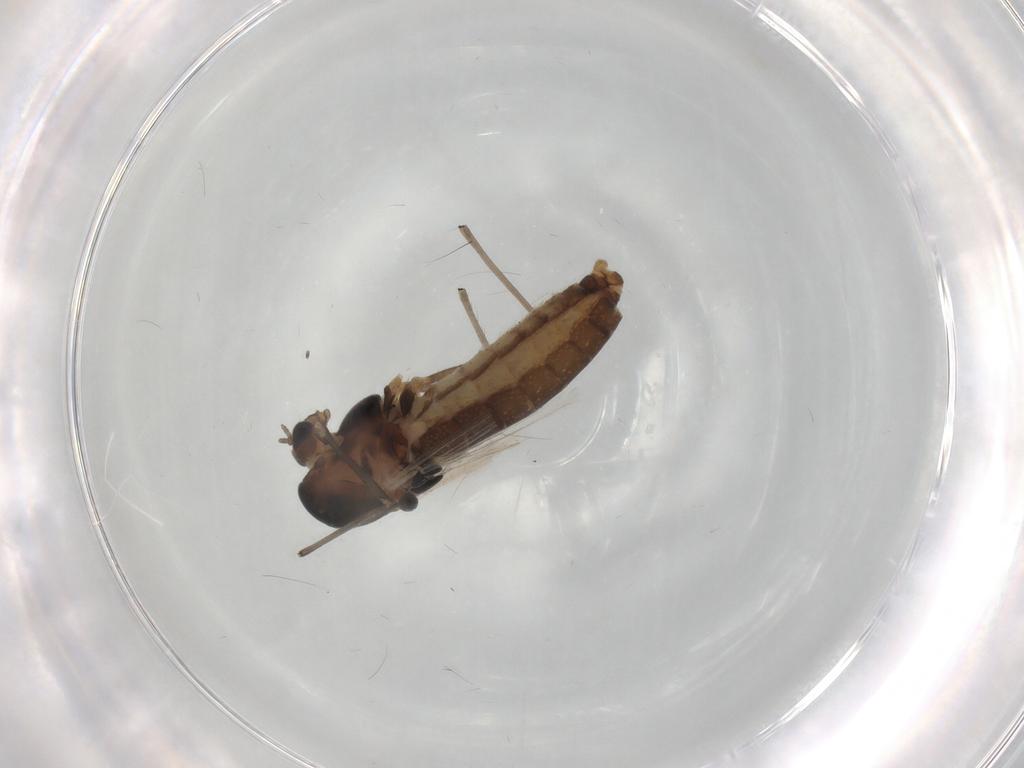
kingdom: Animalia
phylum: Arthropoda
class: Insecta
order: Diptera
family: Chironomidae
